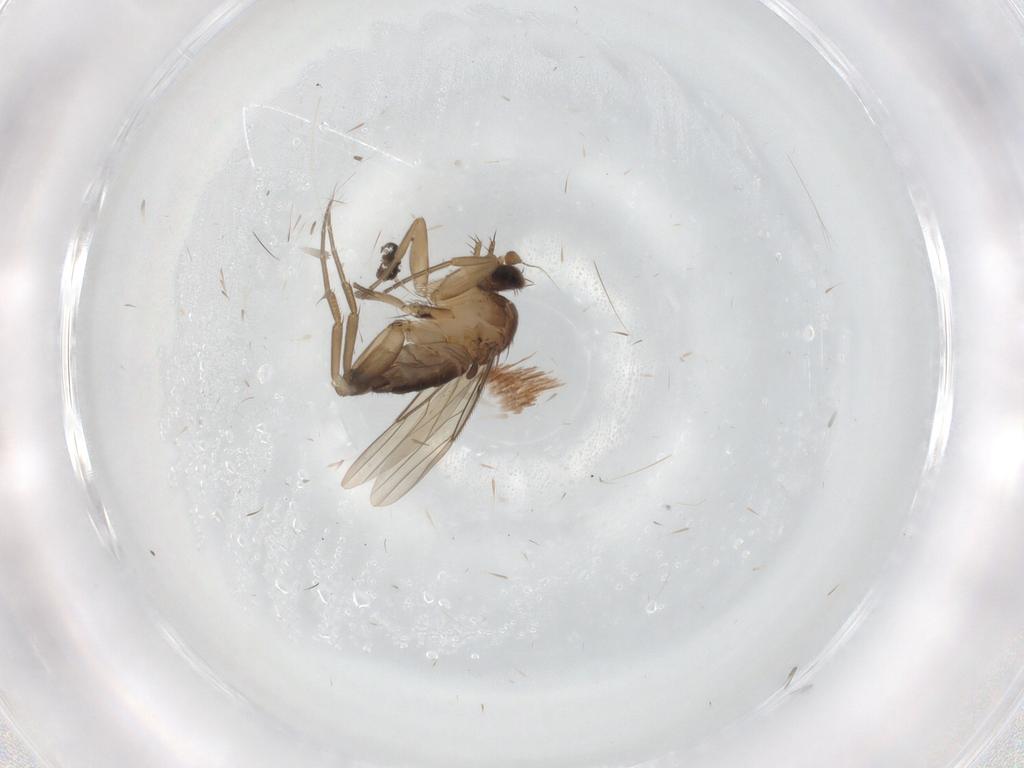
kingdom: Animalia
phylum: Arthropoda
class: Insecta
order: Diptera
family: Phoridae
